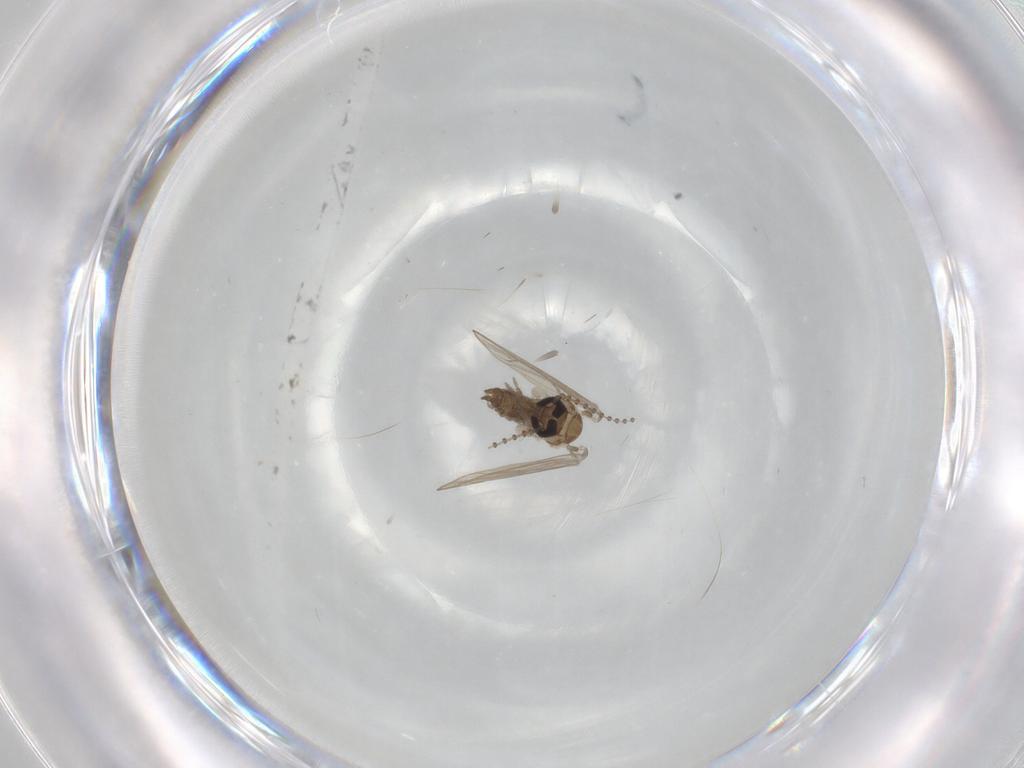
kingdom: Animalia
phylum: Arthropoda
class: Insecta
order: Diptera
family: Psychodidae
